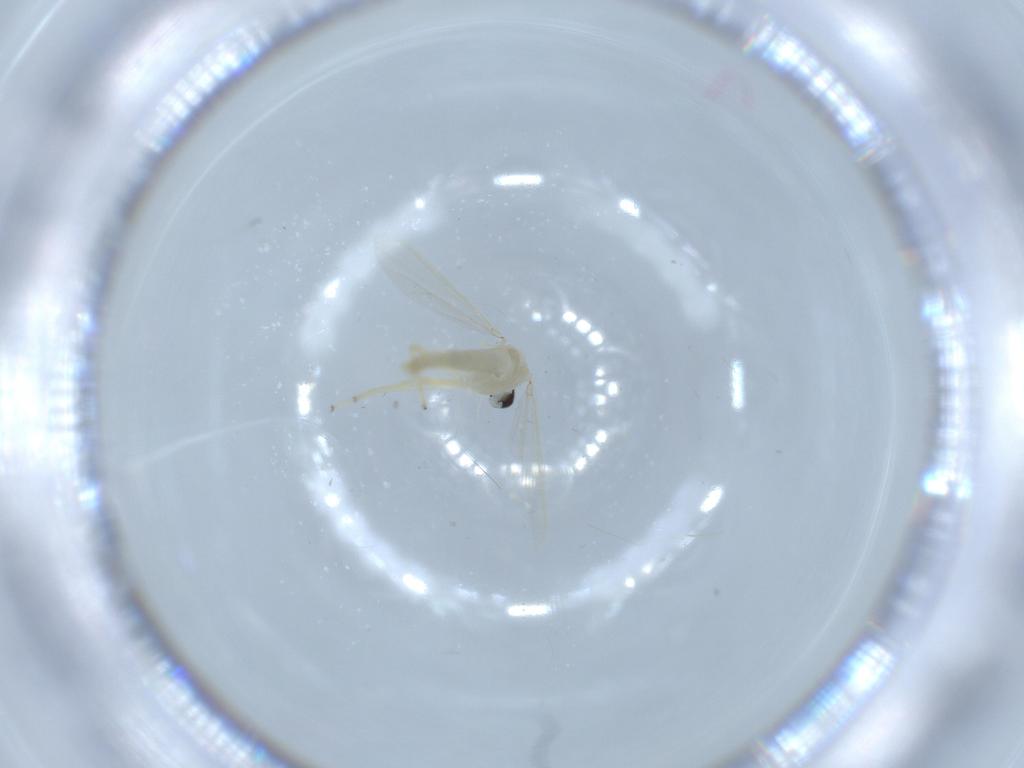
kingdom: Animalia
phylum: Arthropoda
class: Insecta
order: Diptera
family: Chironomidae
